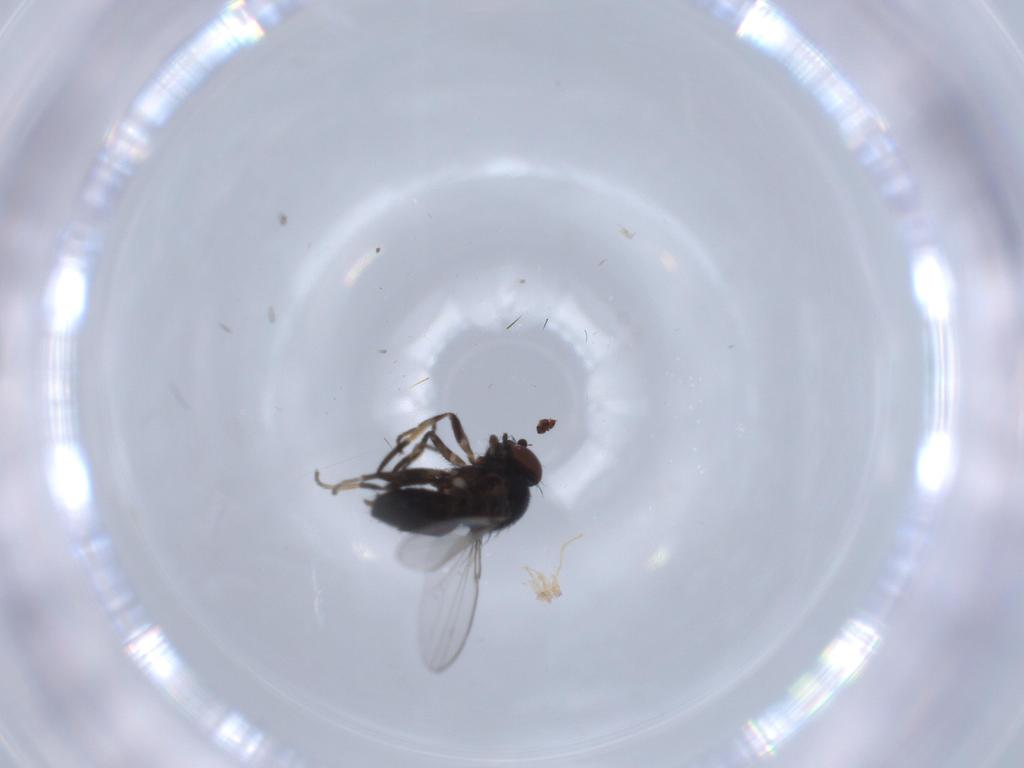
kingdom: Animalia
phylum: Arthropoda
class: Insecta
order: Diptera
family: Milichiidae
